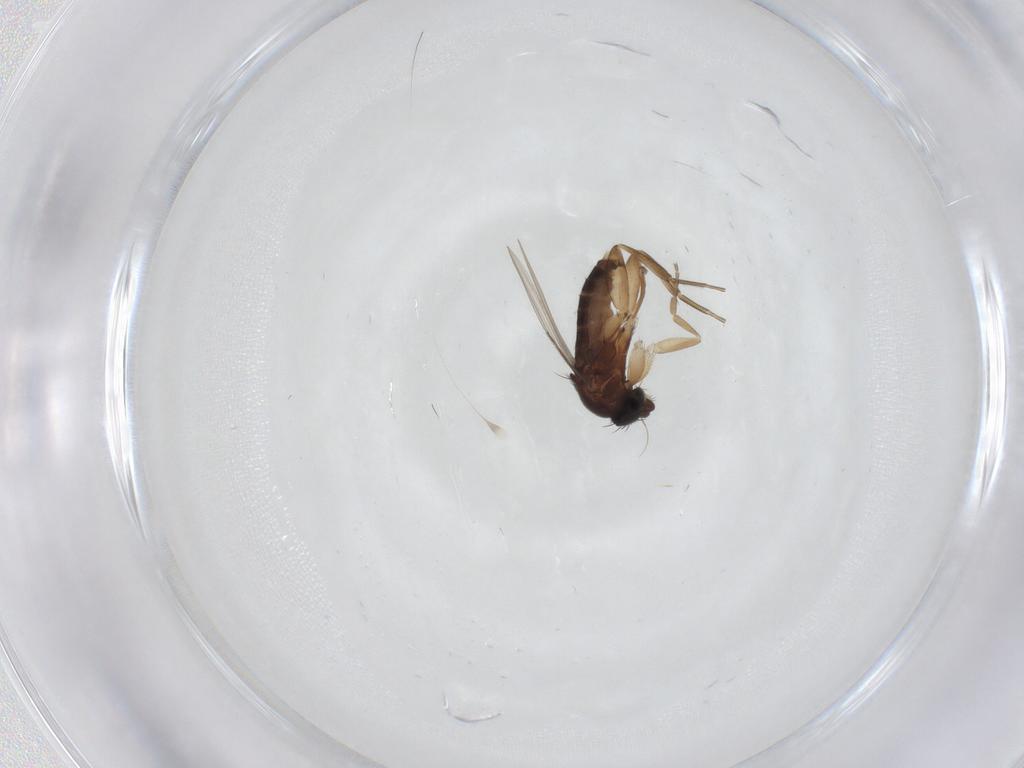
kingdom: Animalia
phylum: Arthropoda
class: Insecta
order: Diptera
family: Phoridae
